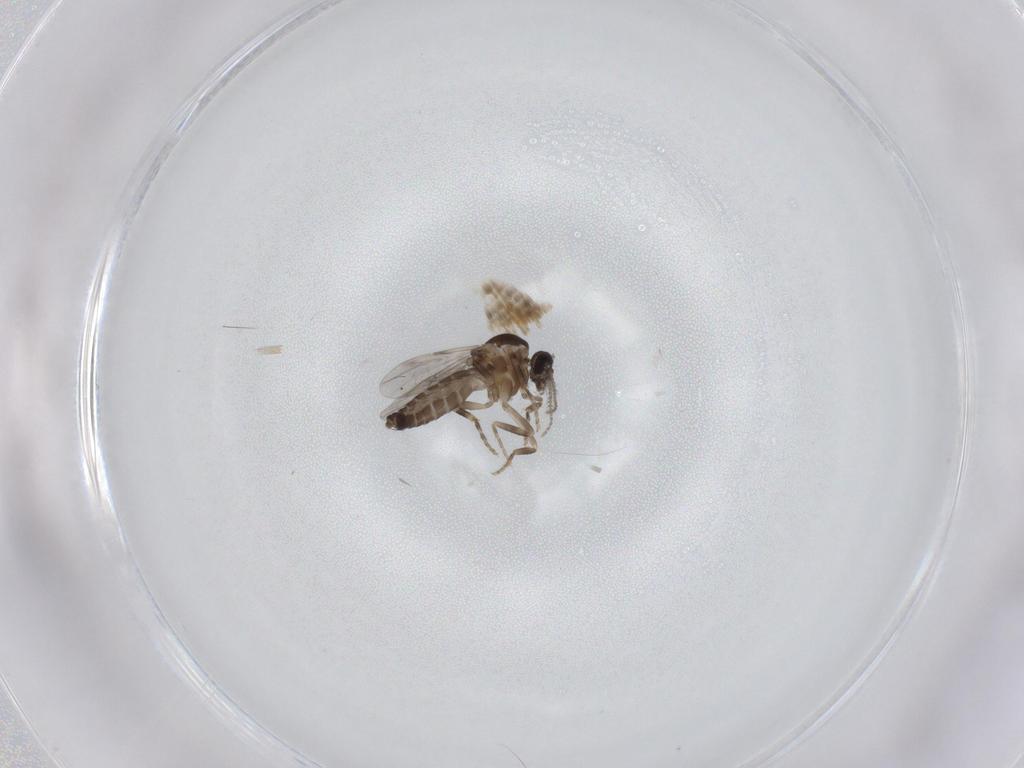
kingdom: Animalia
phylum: Arthropoda
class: Insecta
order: Diptera
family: Ceratopogonidae
